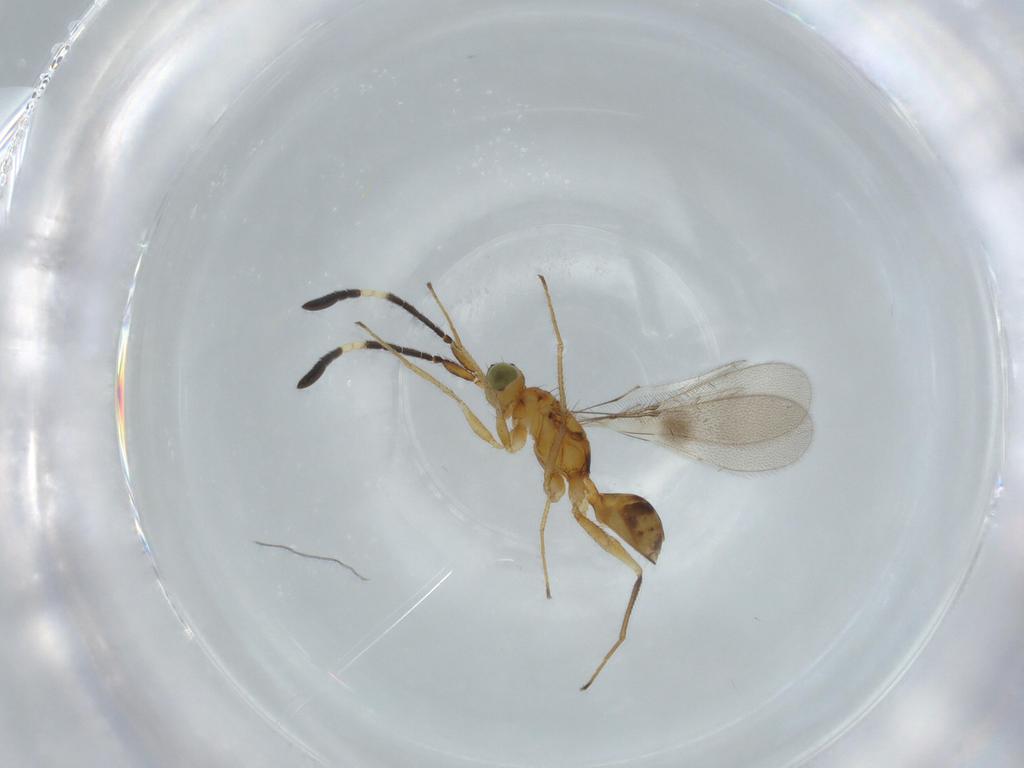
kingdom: Animalia
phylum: Arthropoda
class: Insecta
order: Hymenoptera
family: Mymaridae
